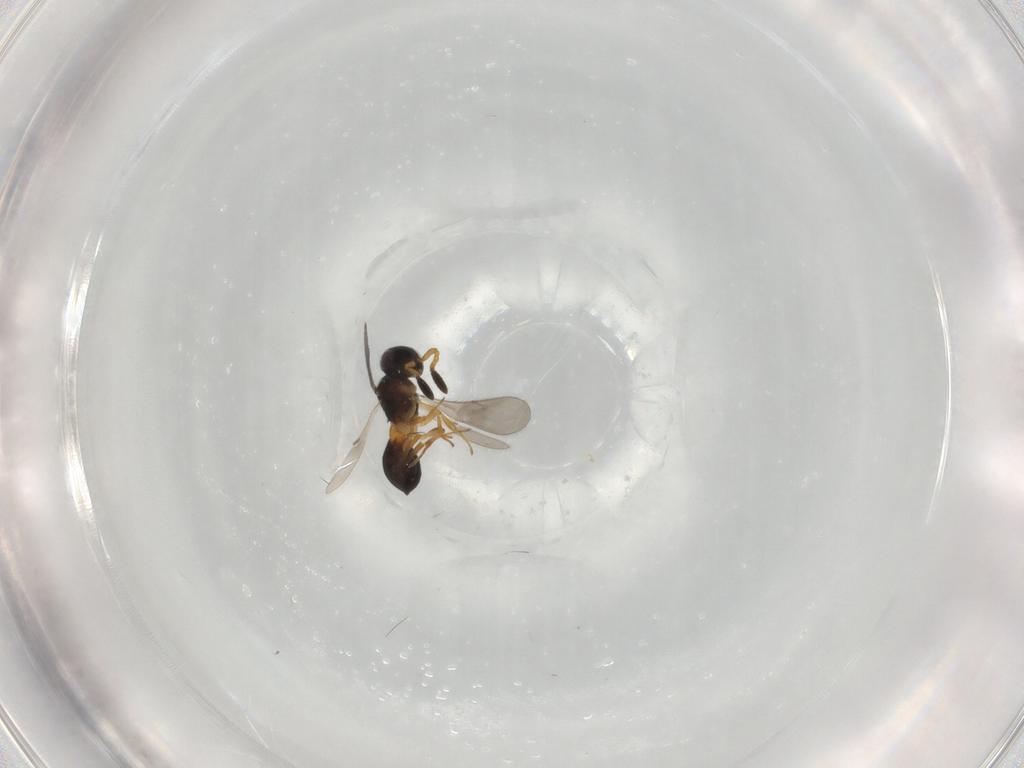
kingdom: Animalia
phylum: Arthropoda
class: Insecta
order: Hymenoptera
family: Scelionidae
